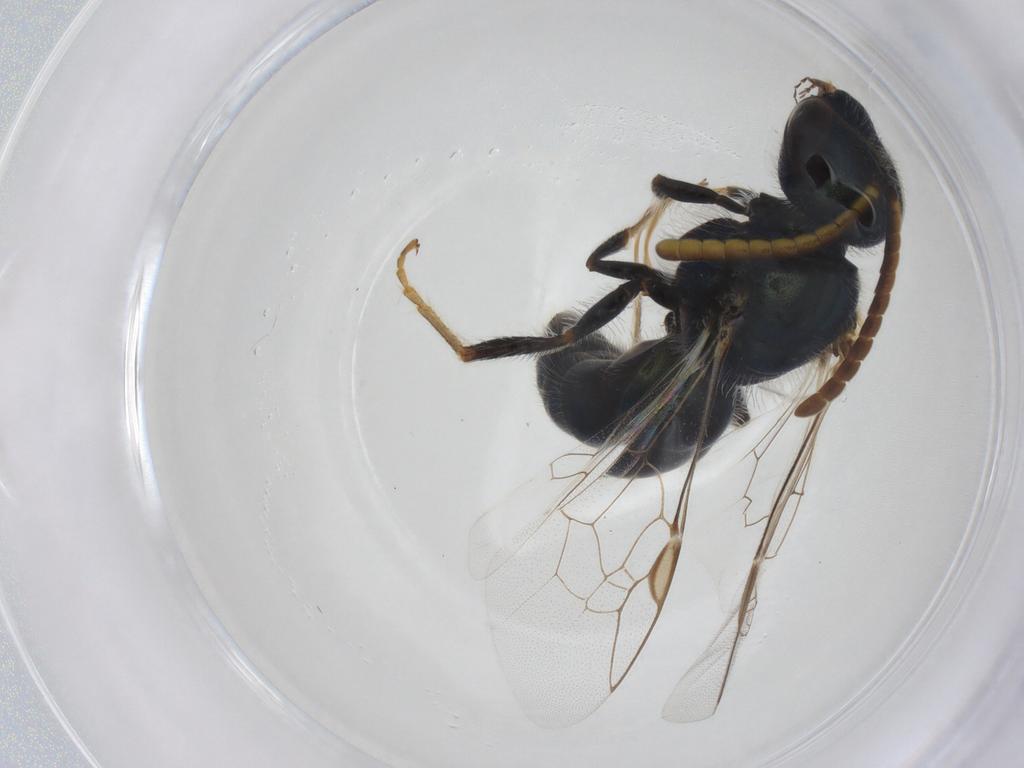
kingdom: Animalia
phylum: Arthropoda
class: Insecta
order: Hymenoptera
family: Halictidae
